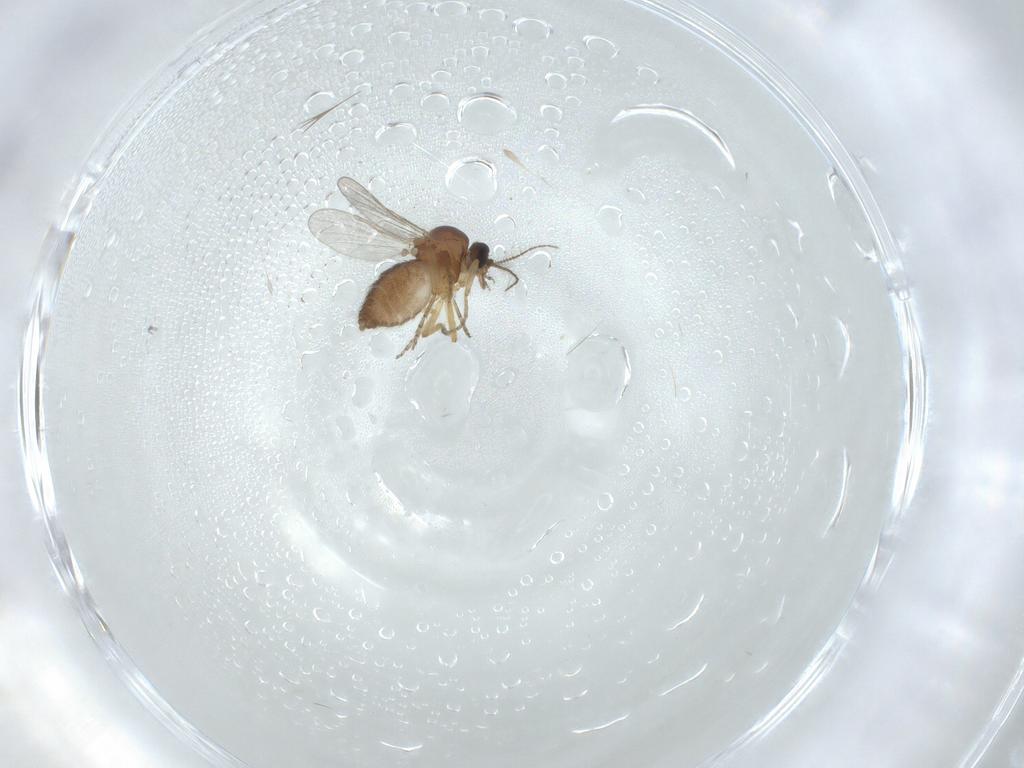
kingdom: Animalia
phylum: Arthropoda
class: Insecta
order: Diptera
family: Ceratopogonidae
